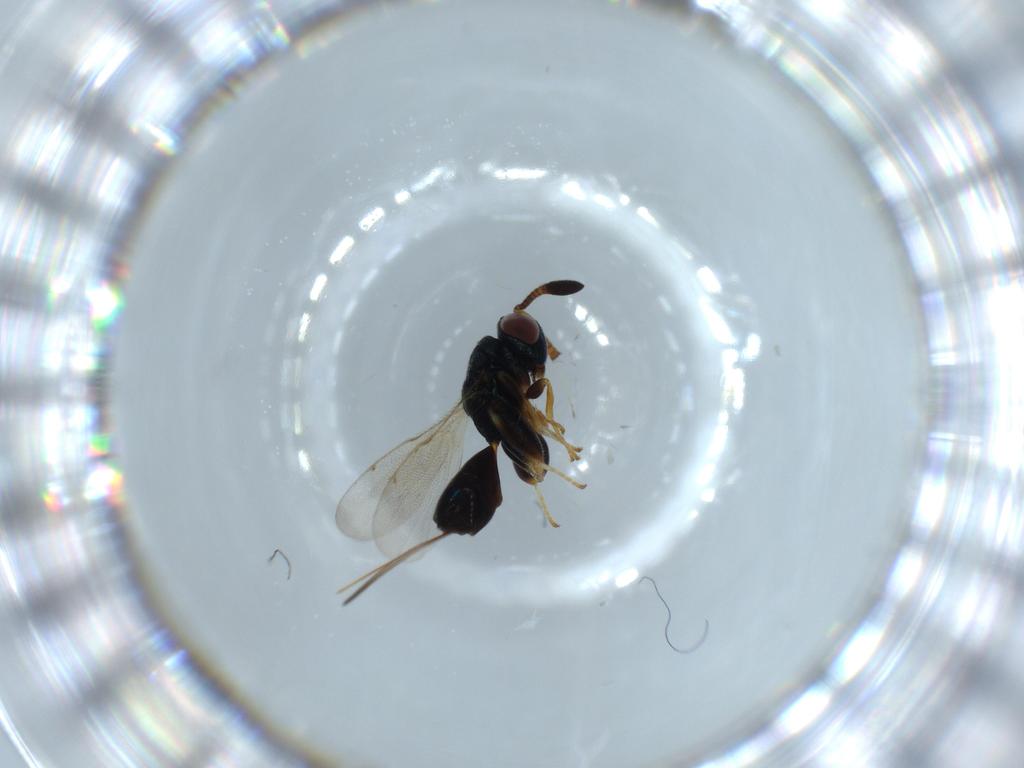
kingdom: Animalia
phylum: Arthropoda
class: Insecta
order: Hymenoptera
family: Torymidae
